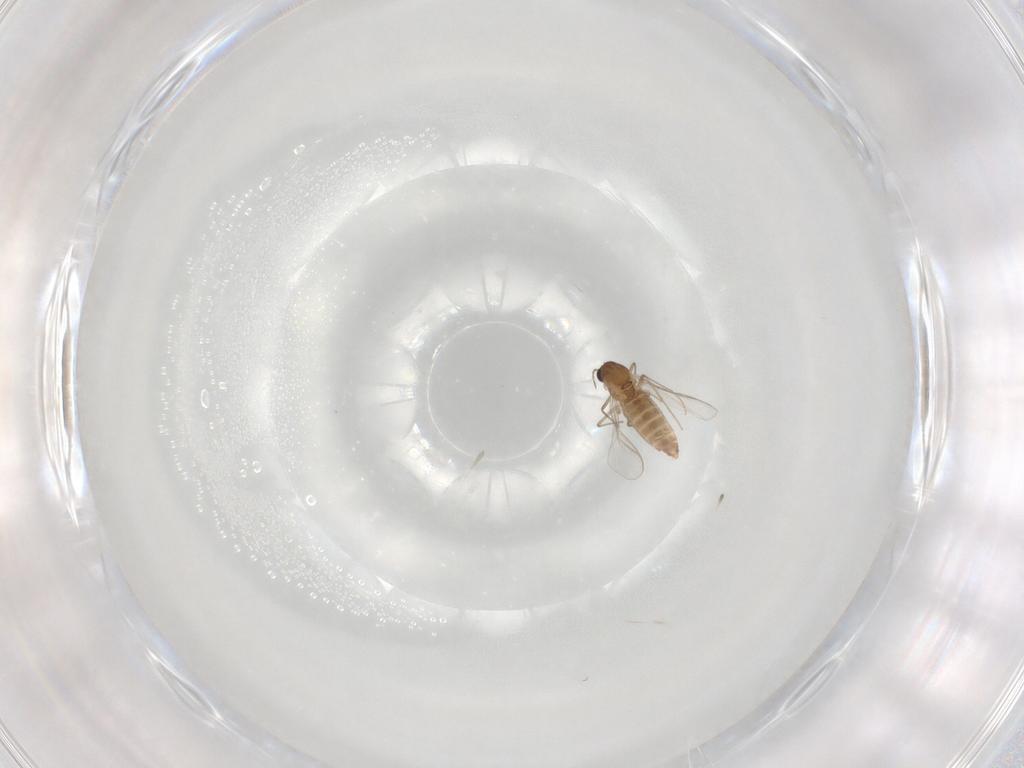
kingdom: Animalia
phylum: Arthropoda
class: Insecta
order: Diptera
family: Chironomidae
